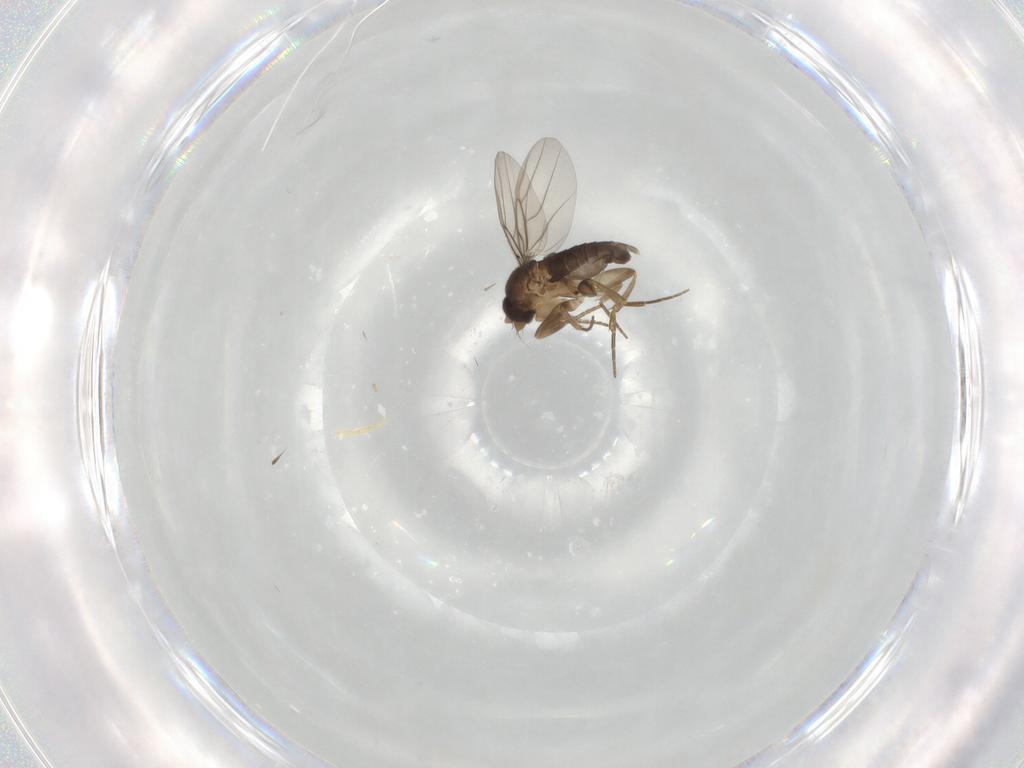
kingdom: Animalia
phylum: Arthropoda
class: Insecta
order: Diptera
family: Phoridae
